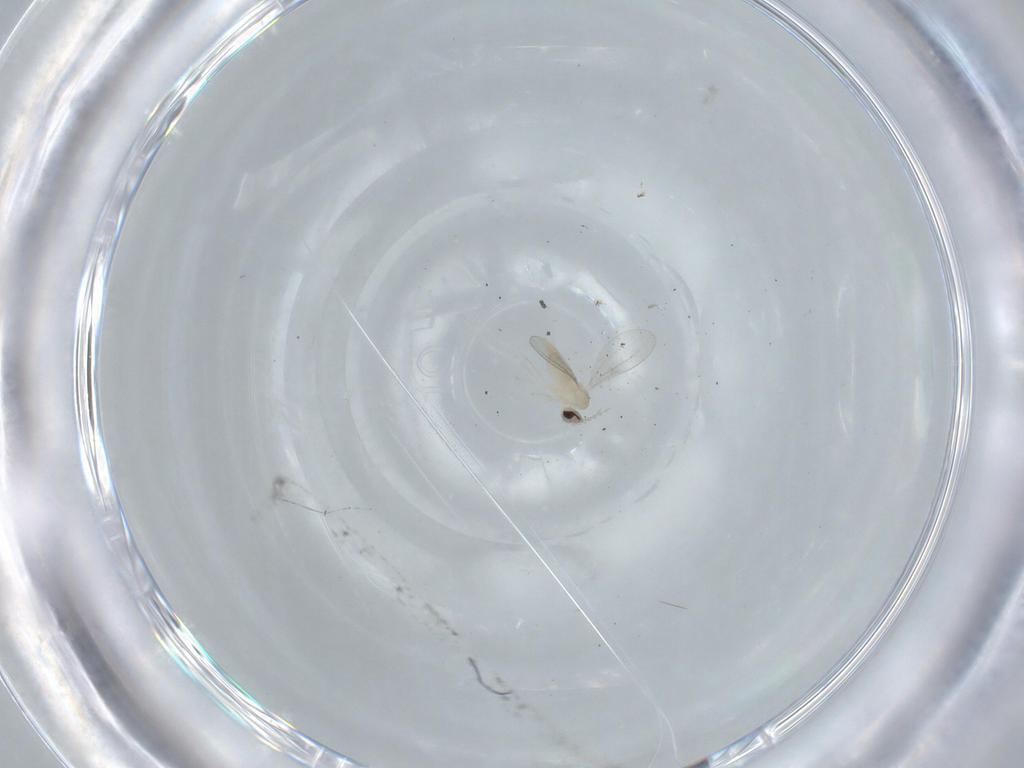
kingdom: Animalia
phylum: Arthropoda
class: Insecta
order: Diptera
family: Cecidomyiidae
